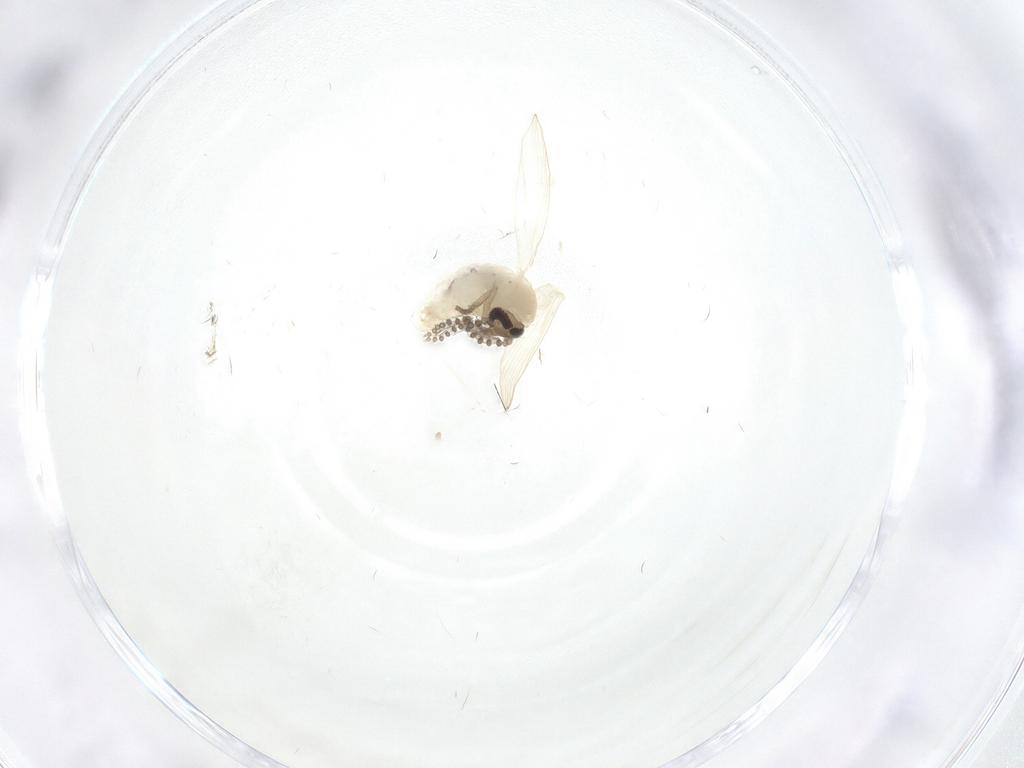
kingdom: Animalia
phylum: Arthropoda
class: Insecta
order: Diptera
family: Psychodidae
